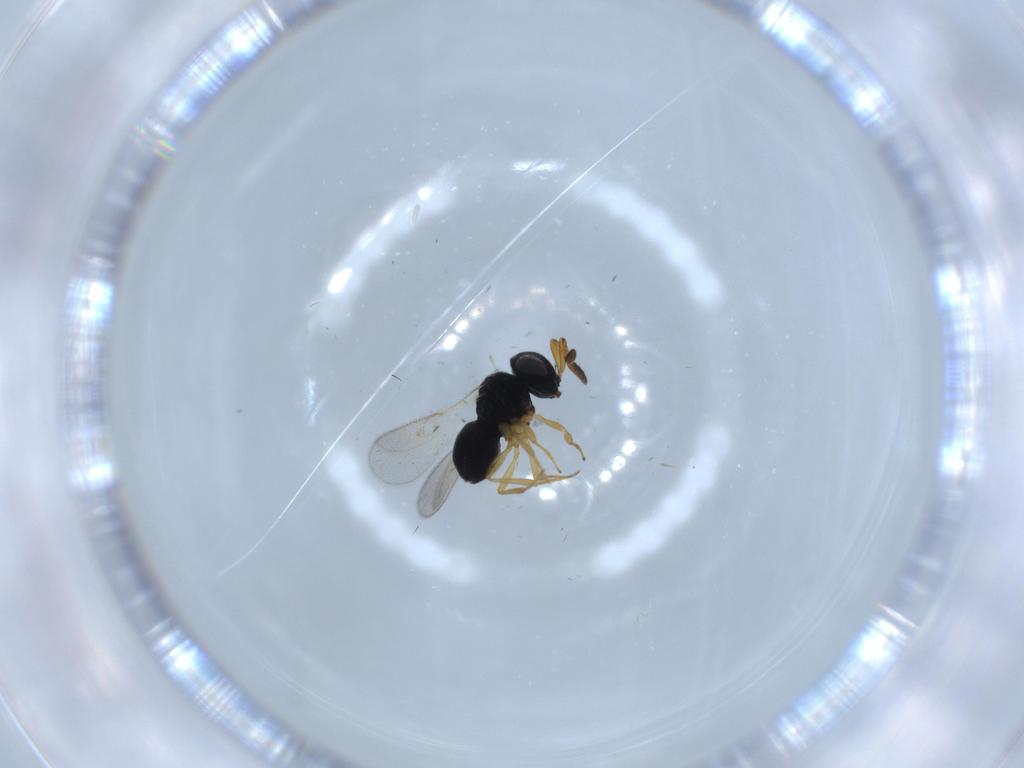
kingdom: Animalia
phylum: Arthropoda
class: Insecta
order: Hymenoptera
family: Scelionidae
